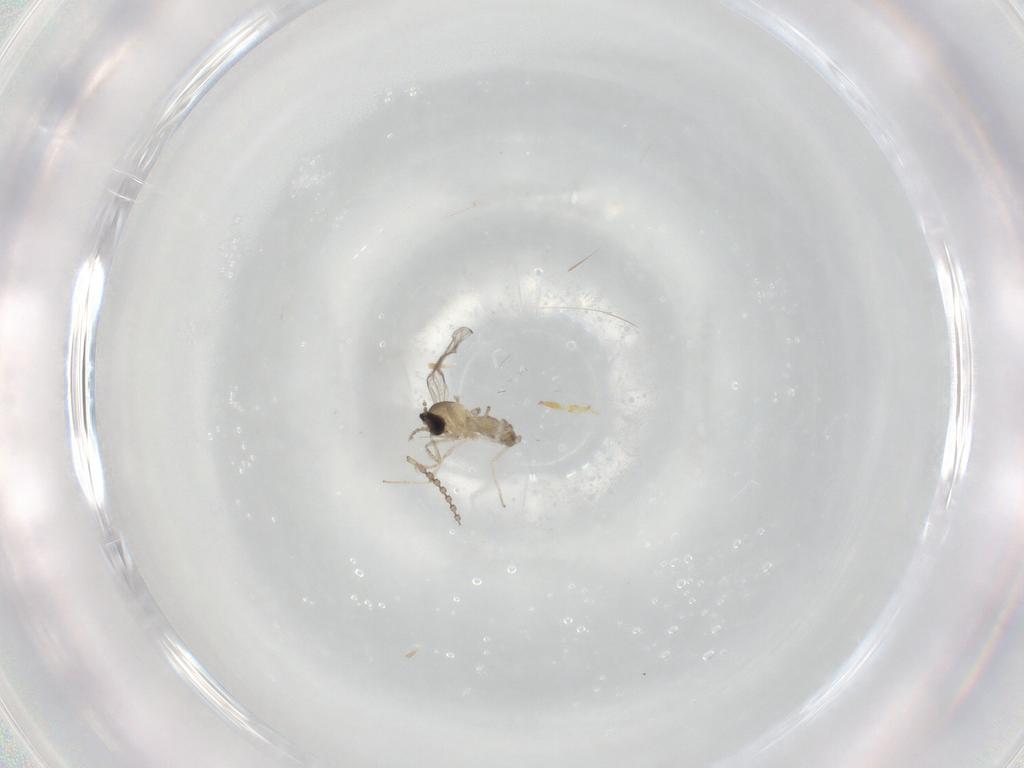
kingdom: Animalia
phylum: Arthropoda
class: Insecta
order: Diptera
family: Cecidomyiidae
